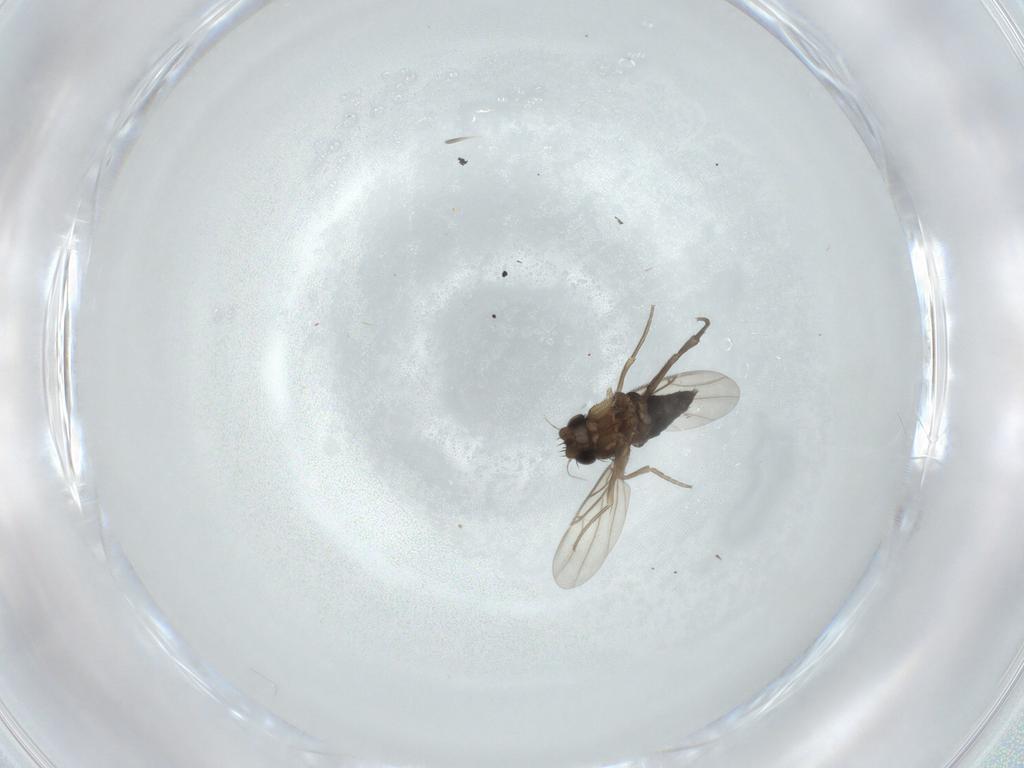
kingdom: Animalia
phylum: Arthropoda
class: Insecta
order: Diptera
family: Phoridae
